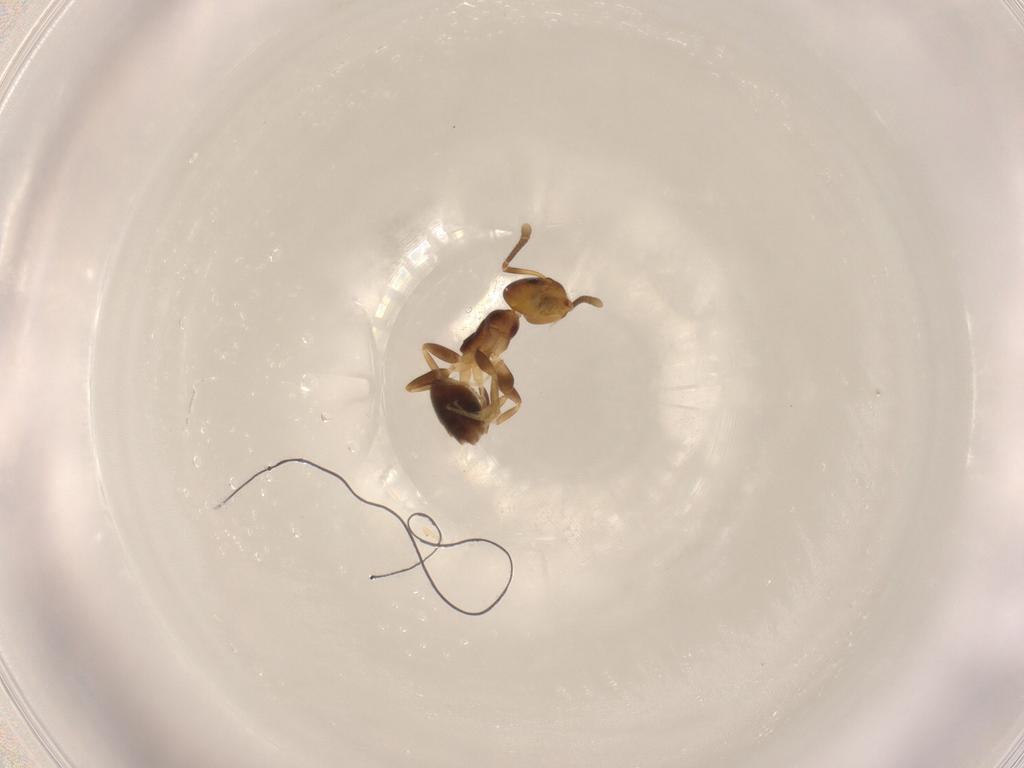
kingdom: Animalia
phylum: Arthropoda
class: Insecta
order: Hymenoptera
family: Formicidae
